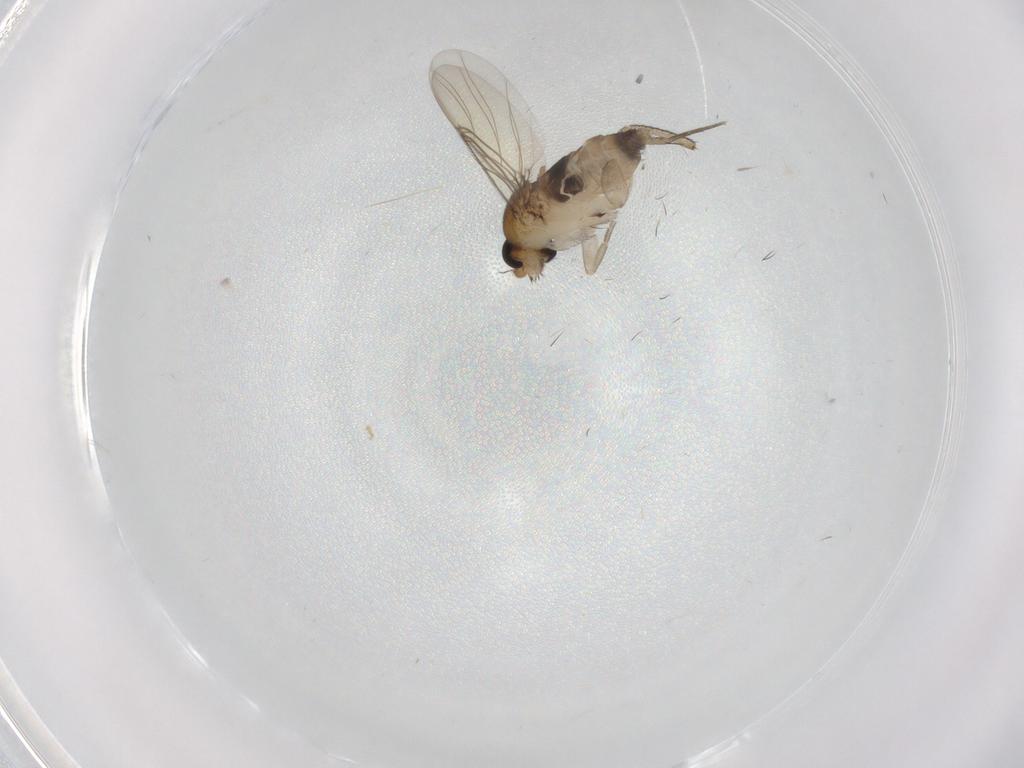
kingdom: Animalia
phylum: Arthropoda
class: Insecta
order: Diptera
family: Phoridae
